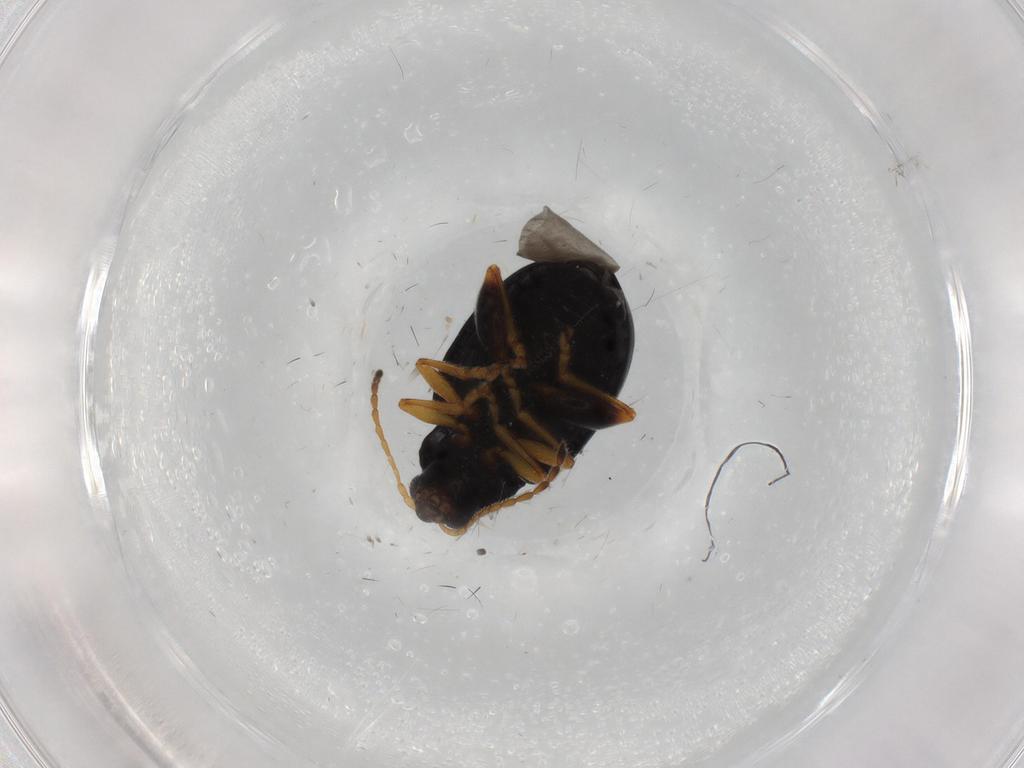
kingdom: Animalia
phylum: Arthropoda
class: Insecta
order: Coleoptera
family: Chrysomelidae
